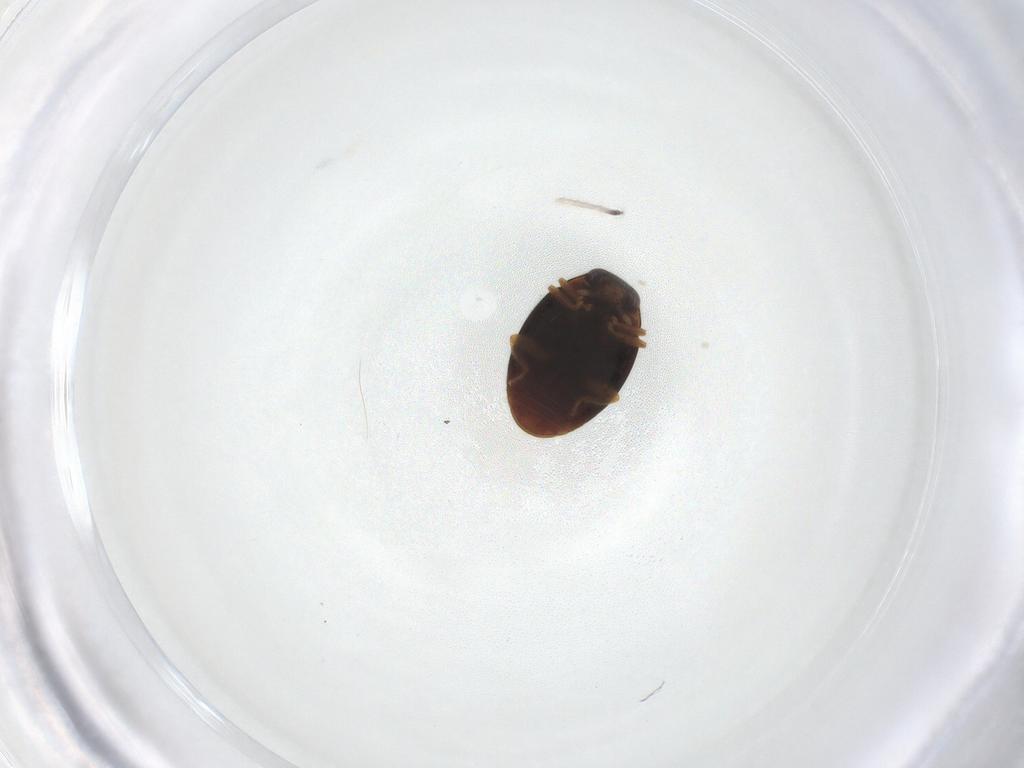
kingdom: Animalia
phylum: Arthropoda
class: Insecta
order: Coleoptera
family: Coccinellidae
